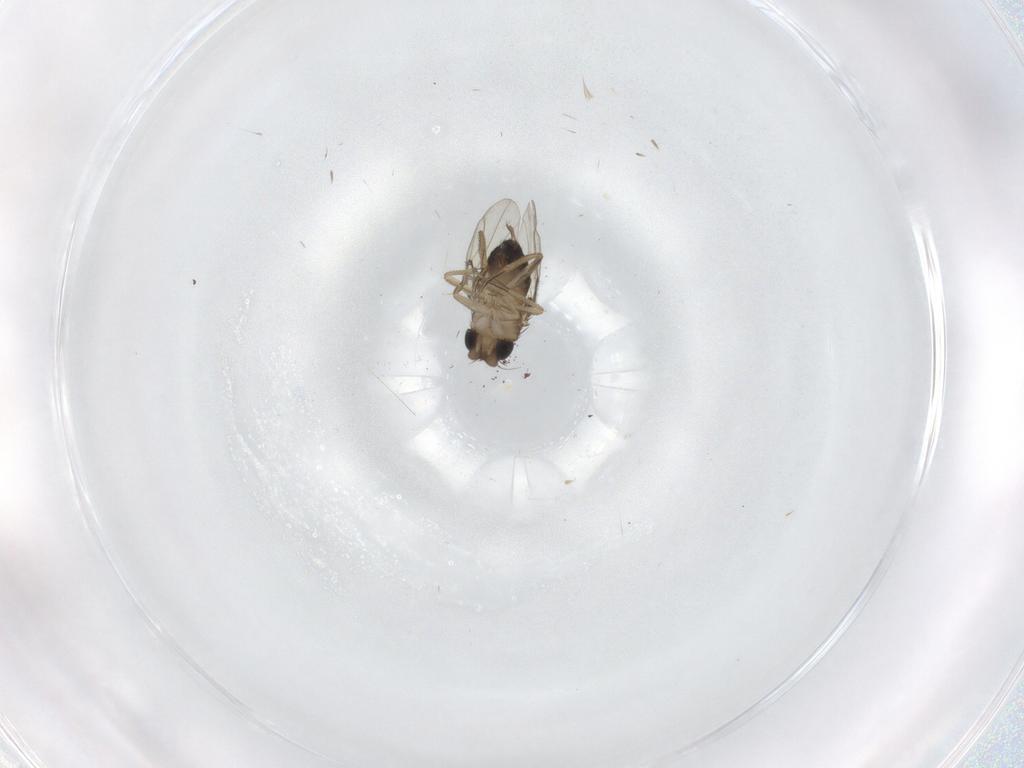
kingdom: Animalia
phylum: Arthropoda
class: Insecta
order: Diptera
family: Phoridae
